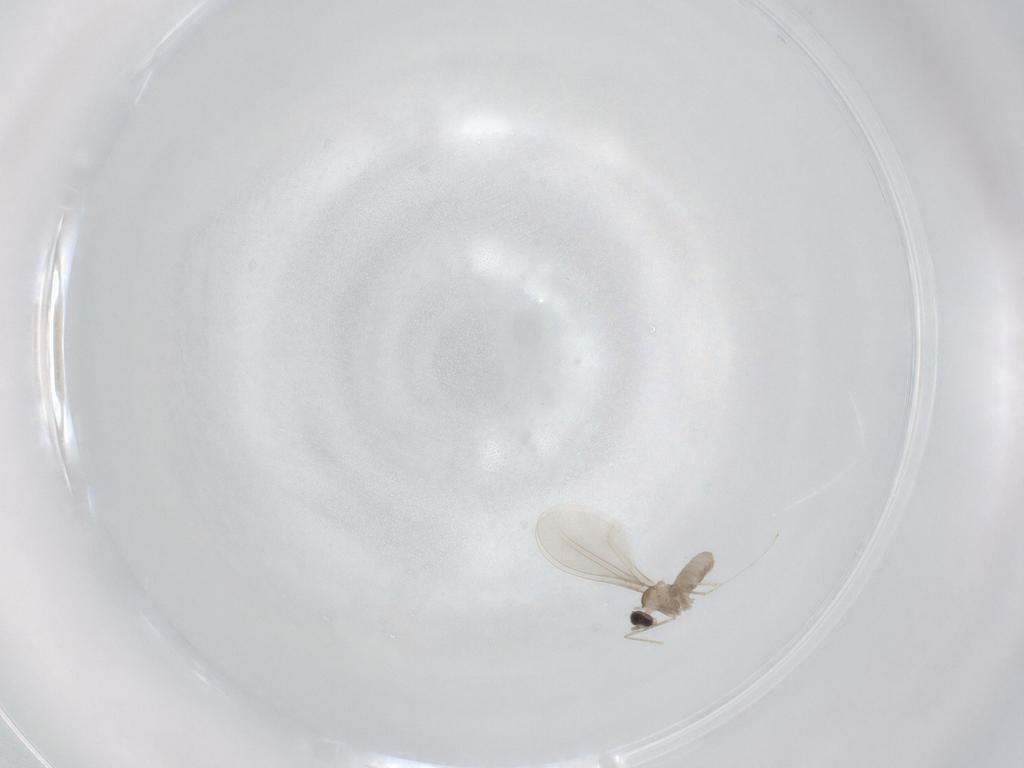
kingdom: Animalia
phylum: Arthropoda
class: Insecta
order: Diptera
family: Cecidomyiidae
